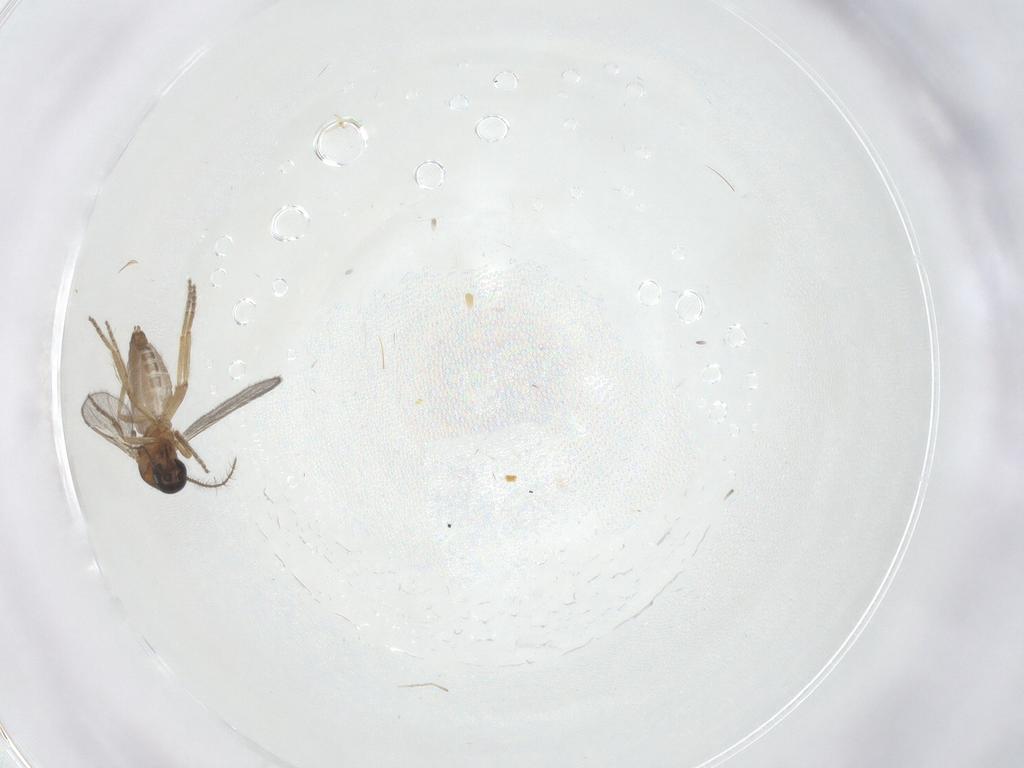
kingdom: Animalia
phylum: Arthropoda
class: Insecta
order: Diptera
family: Ceratopogonidae
